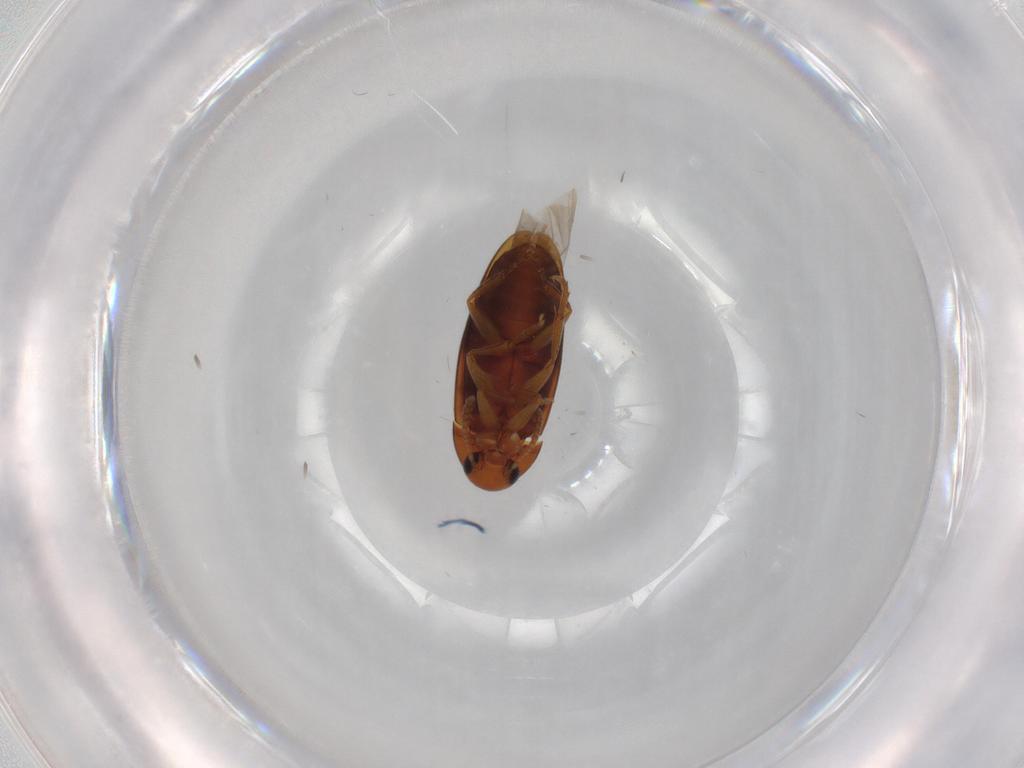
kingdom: Animalia
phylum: Arthropoda
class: Insecta
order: Coleoptera
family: Scraptiidae
